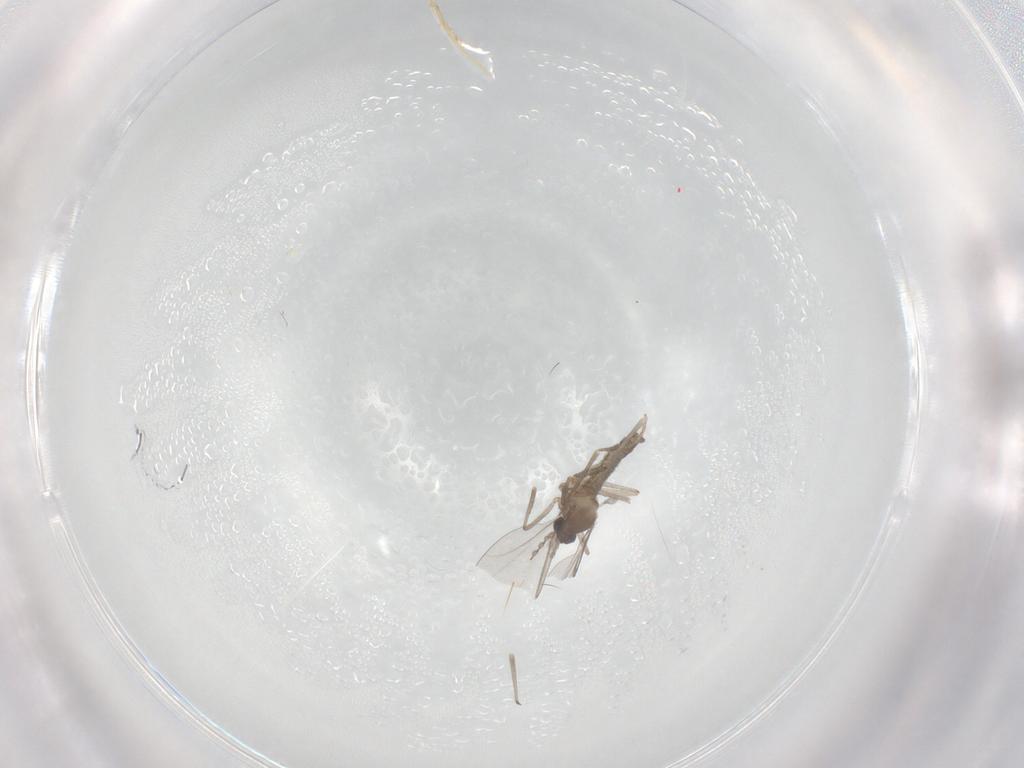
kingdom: Animalia
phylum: Arthropoda
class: Insecta
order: Diptera
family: Cecidomyiidae
